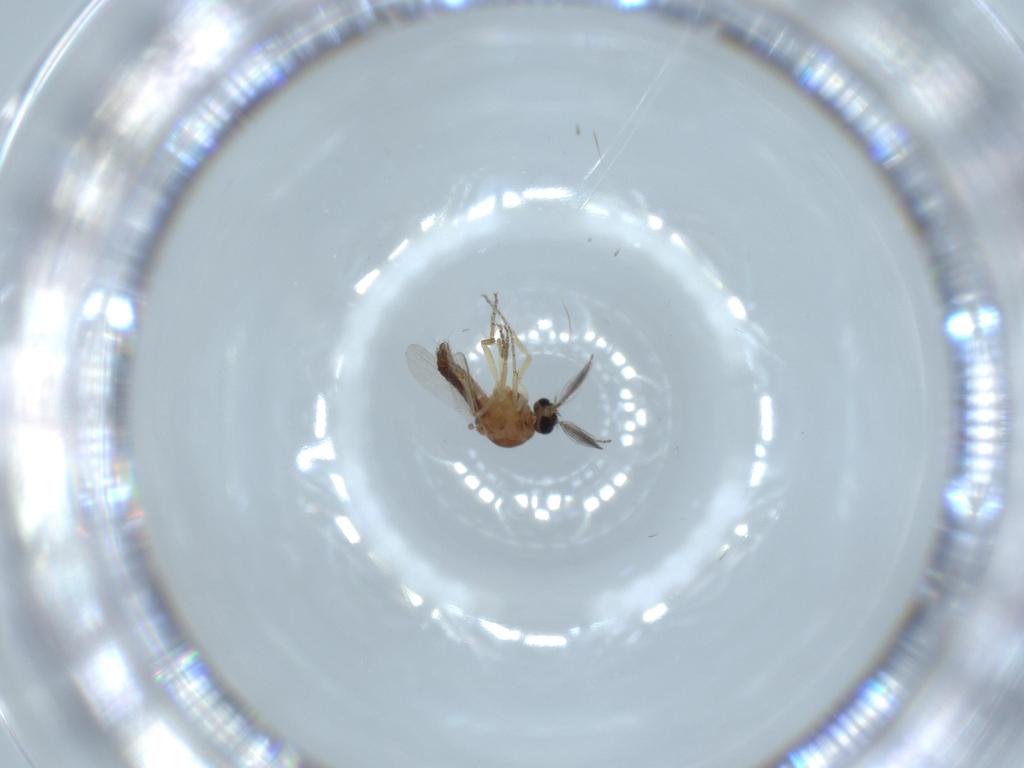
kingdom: Animalia
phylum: Arthropoda
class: Insecta
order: Diptera
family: Ceratopogonidae
